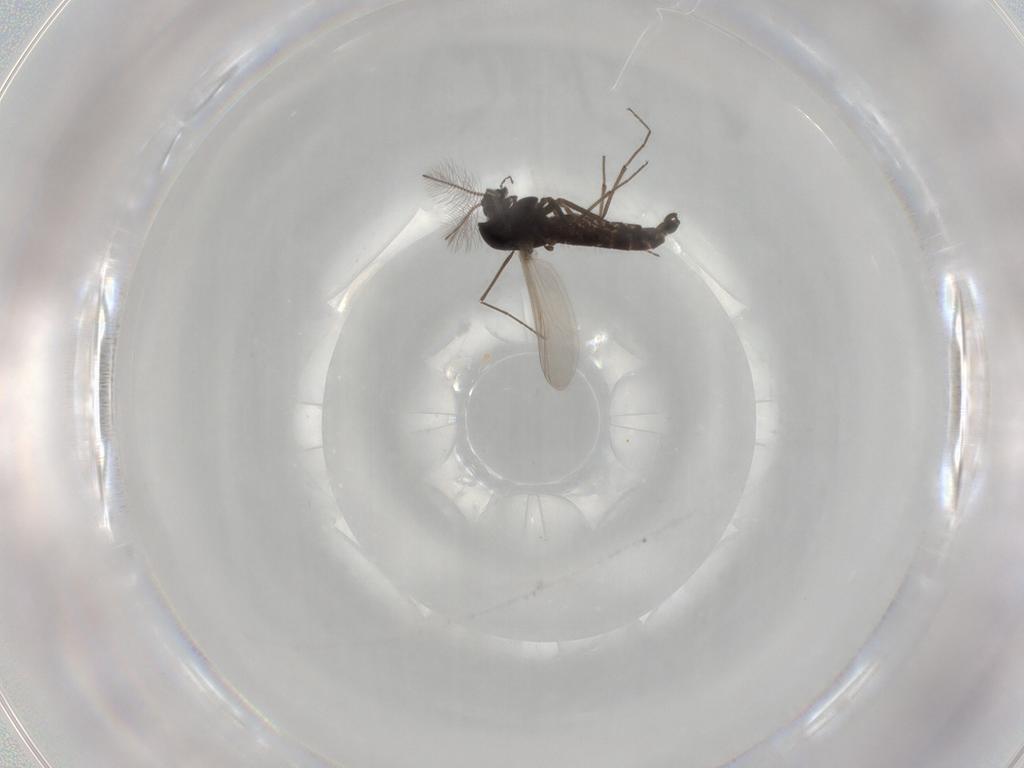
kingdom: Animalia
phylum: Arthropoda
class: Insecta
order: Diptera
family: Chironomidae
